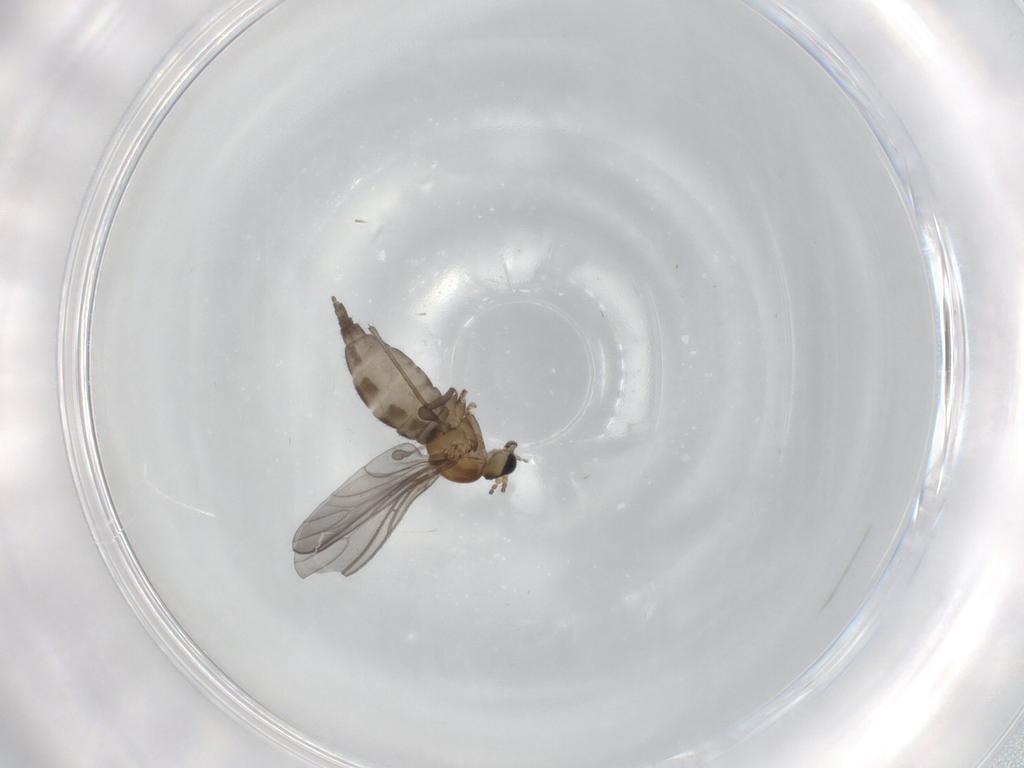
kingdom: Animalia
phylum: Arthropoda
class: Insecta
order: Diptera
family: Sciaridae
